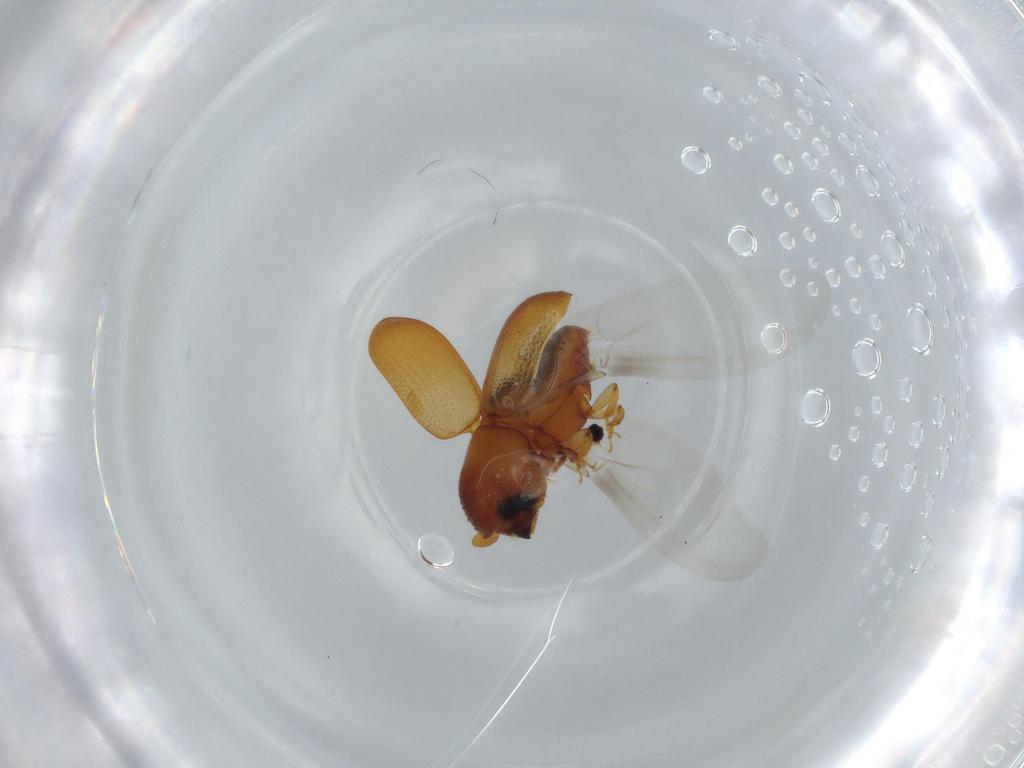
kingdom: Animalia
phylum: Arthropoda
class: Insecta
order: Coleoptera
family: Curculionidae
